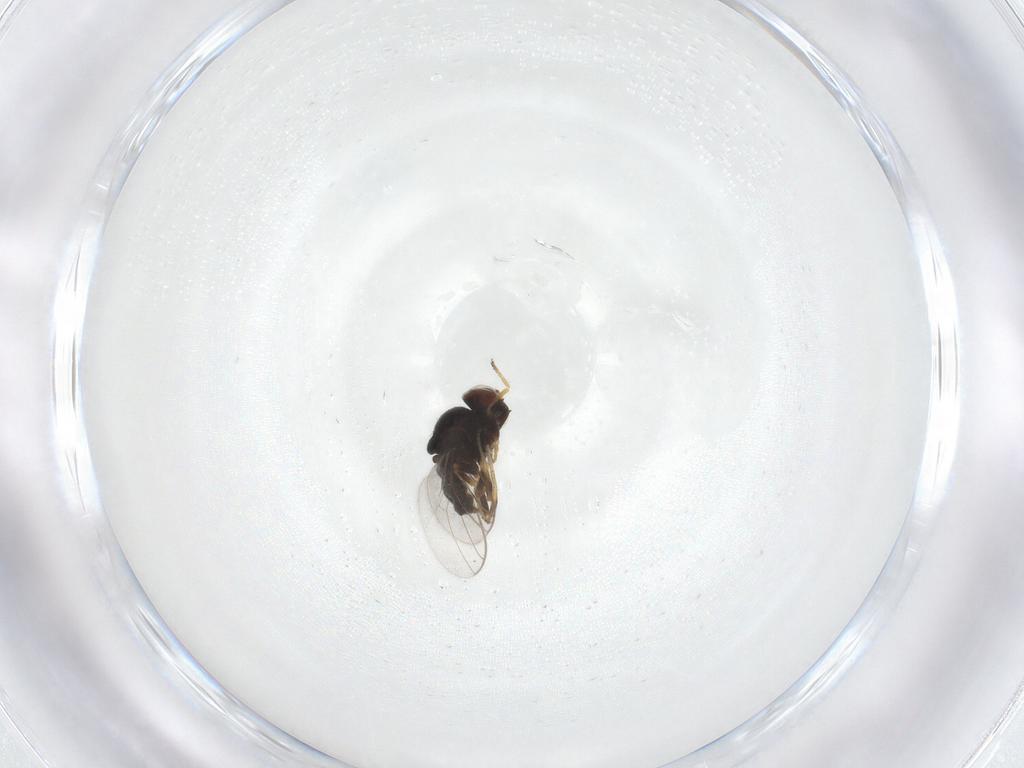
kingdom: Animalia
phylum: Arthropoda
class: Insecta
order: Diptera
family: Chloropidae
